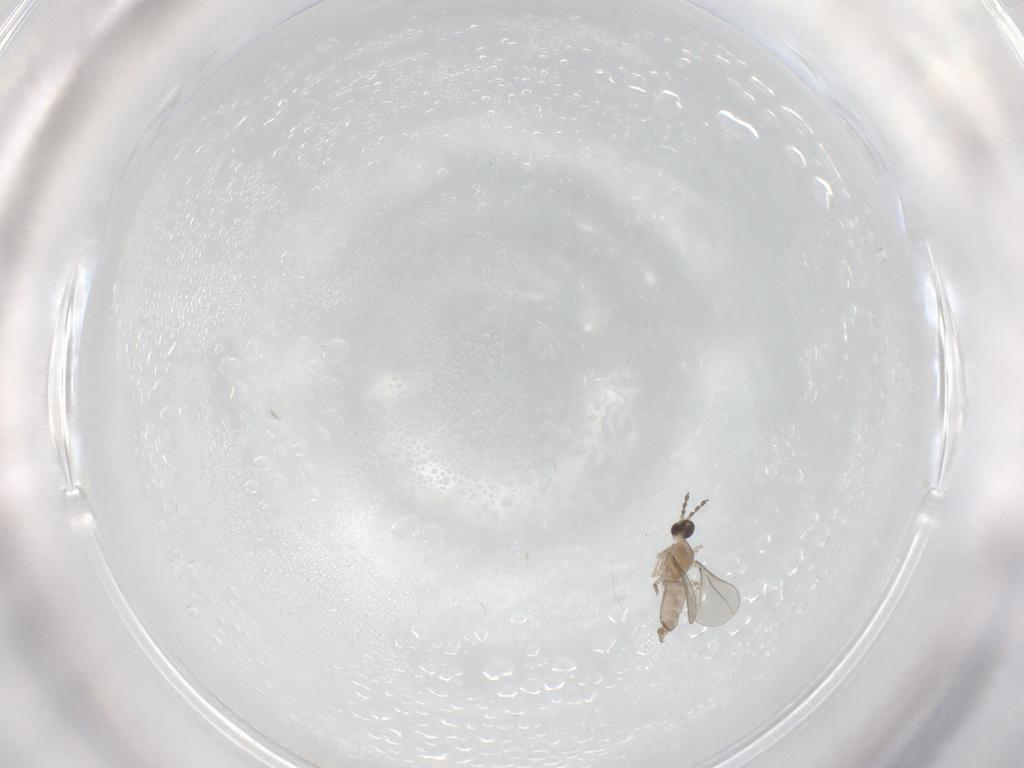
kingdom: Animalia
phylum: Arthropoda
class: Insecta
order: Diptera
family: Cecidomyiidae
